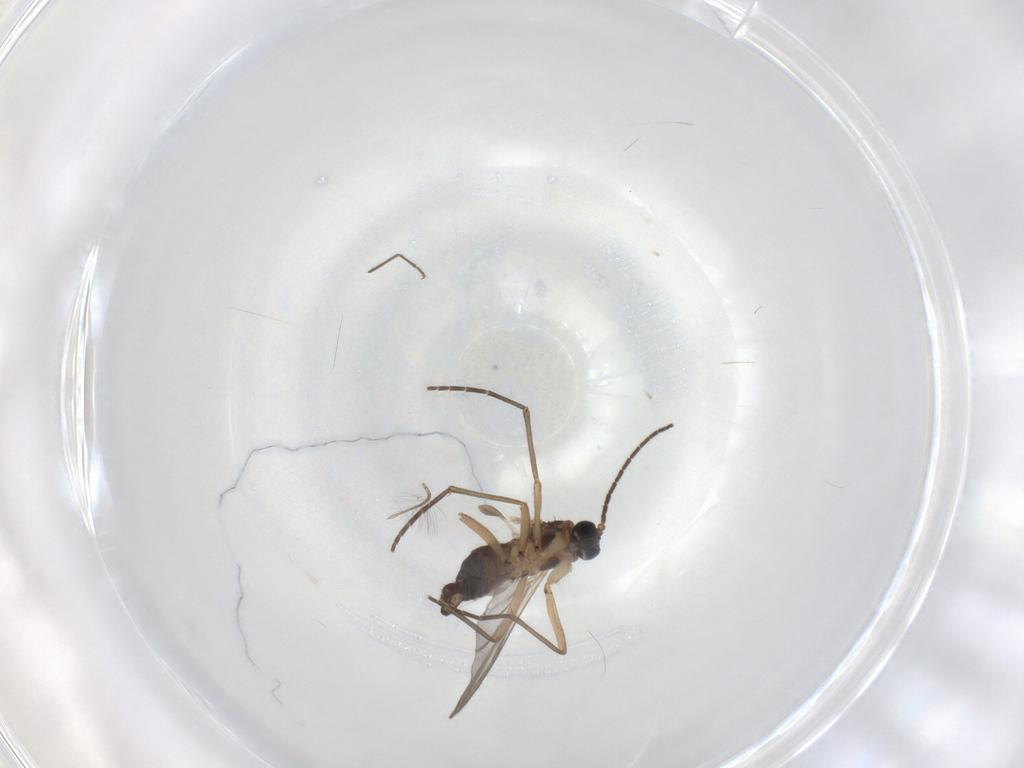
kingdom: Animalia
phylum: Arthropoda
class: Insecta
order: Diptera
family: Sciaridae
